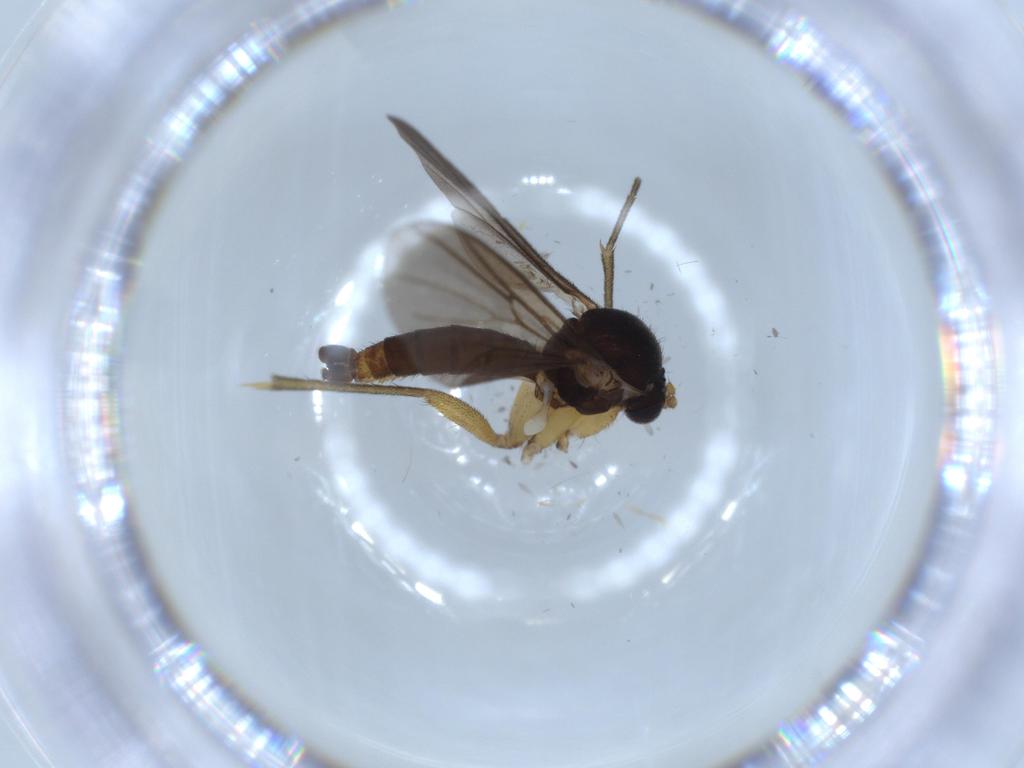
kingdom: Animalia
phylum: Arthropoda
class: Insecta
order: Diptera
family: Mycetophilidae
